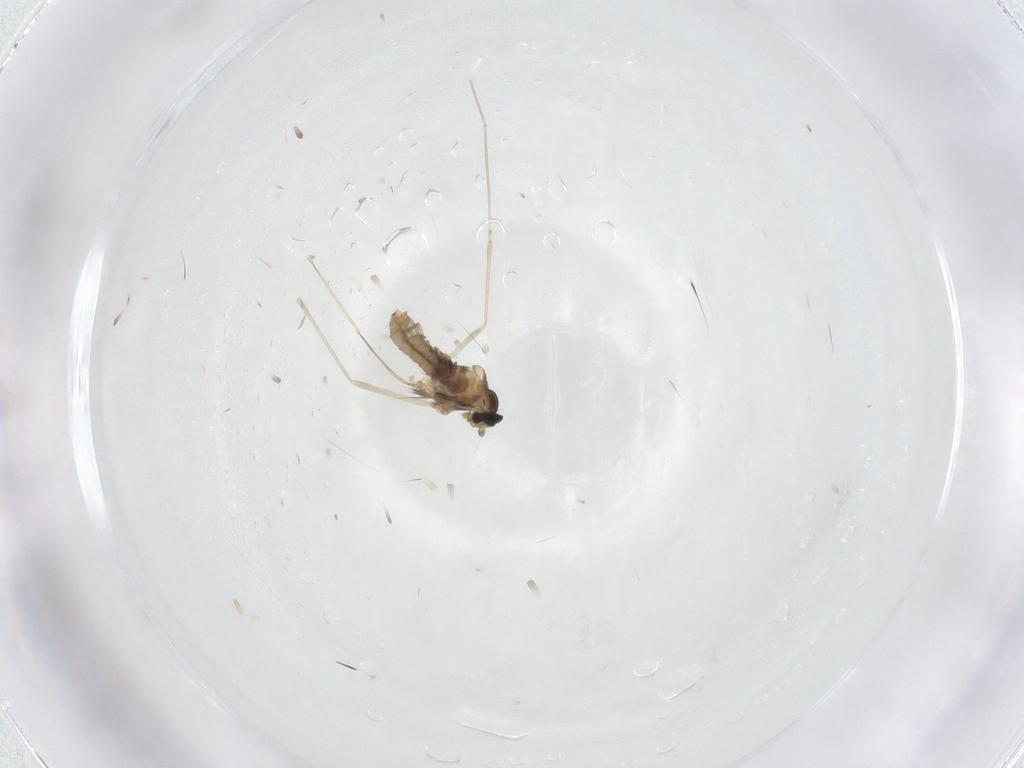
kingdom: Animalia
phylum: Arthropoda
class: Insecta
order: Diptera
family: Cecidomyiidae
